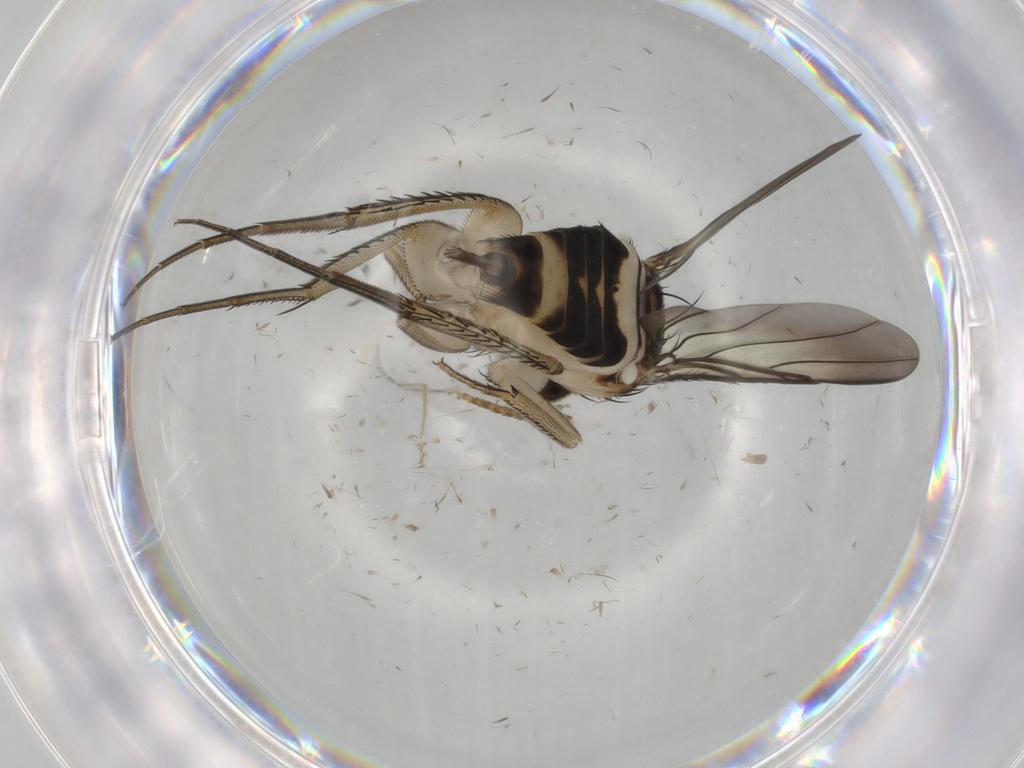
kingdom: Animalia
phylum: Arthropoda
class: Insecta
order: Diptera
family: Phoridae
